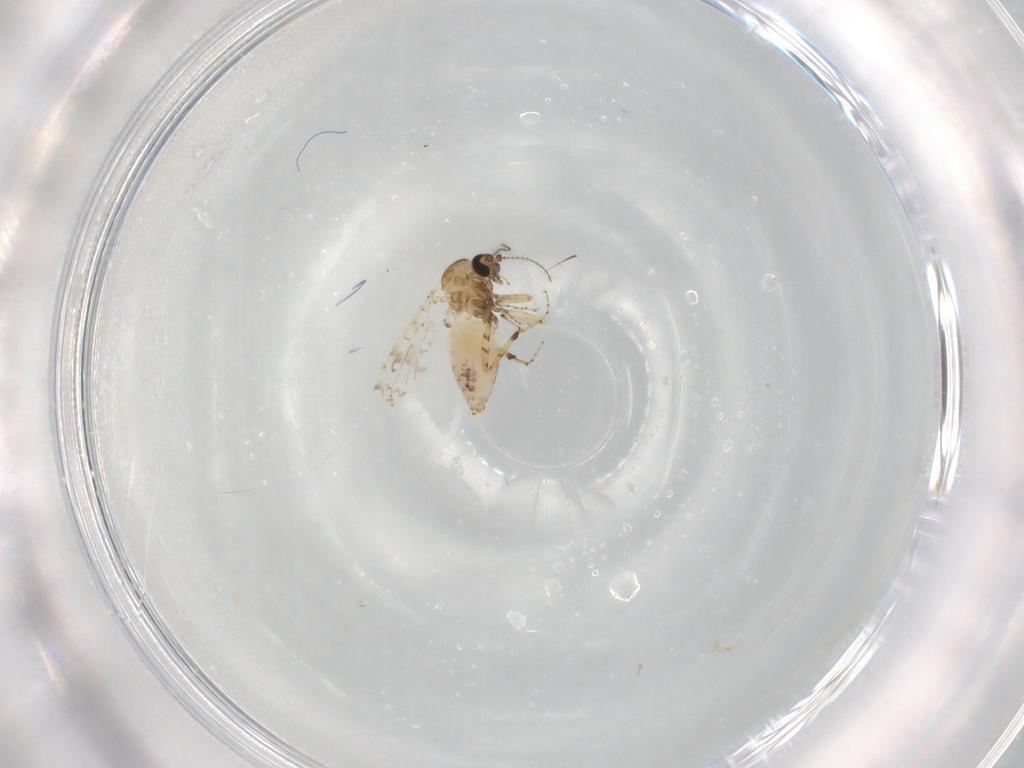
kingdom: Animalia
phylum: Arthropoda
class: Insecta
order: Diptera
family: Ceratopogonidae
